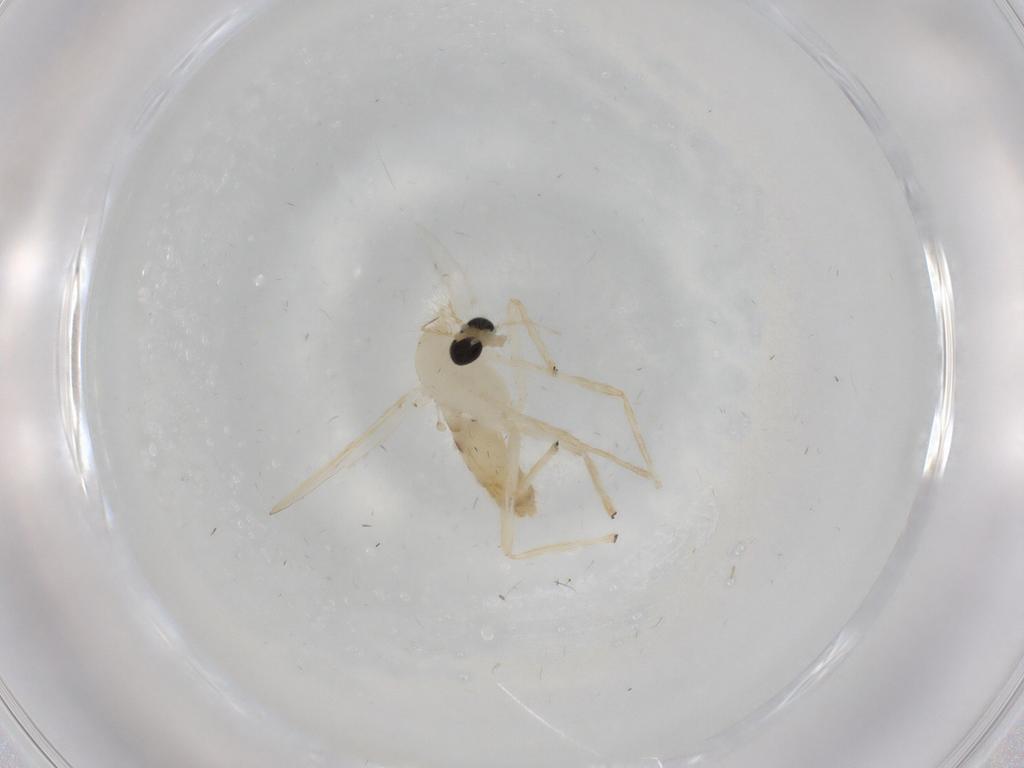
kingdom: Animalia
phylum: Arthropoda
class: Insecta
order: Diptera
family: Chironomidae
